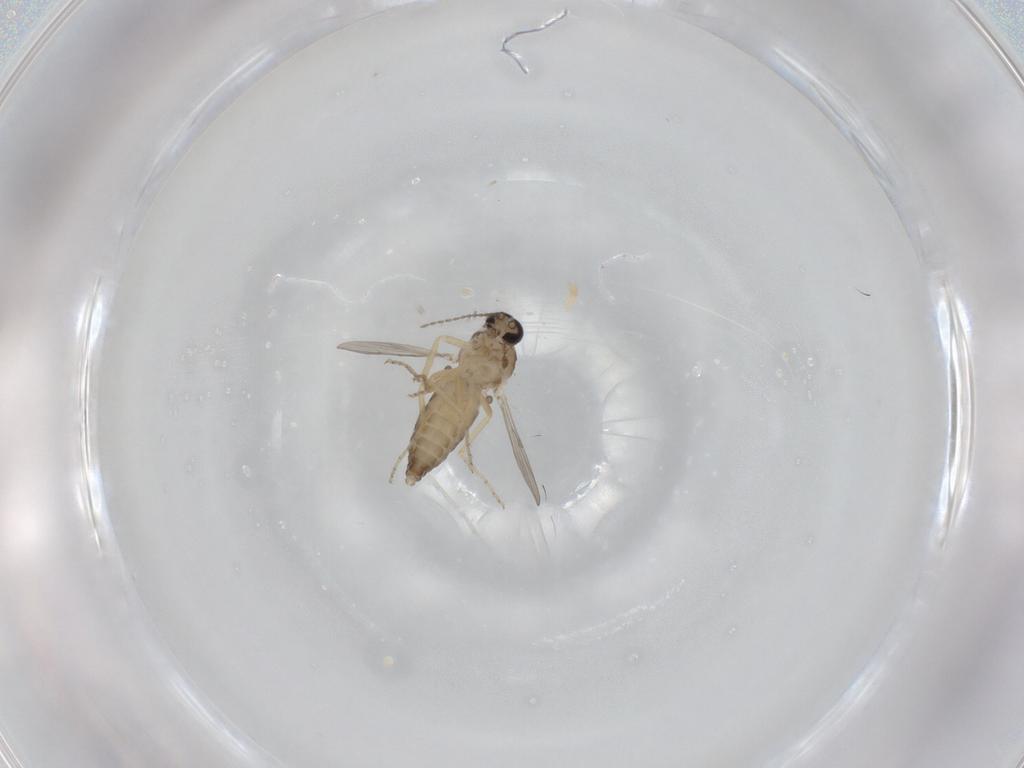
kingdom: Animalia
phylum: Arthropoda
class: Insecta
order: Diptera
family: Ceratopogonidae
